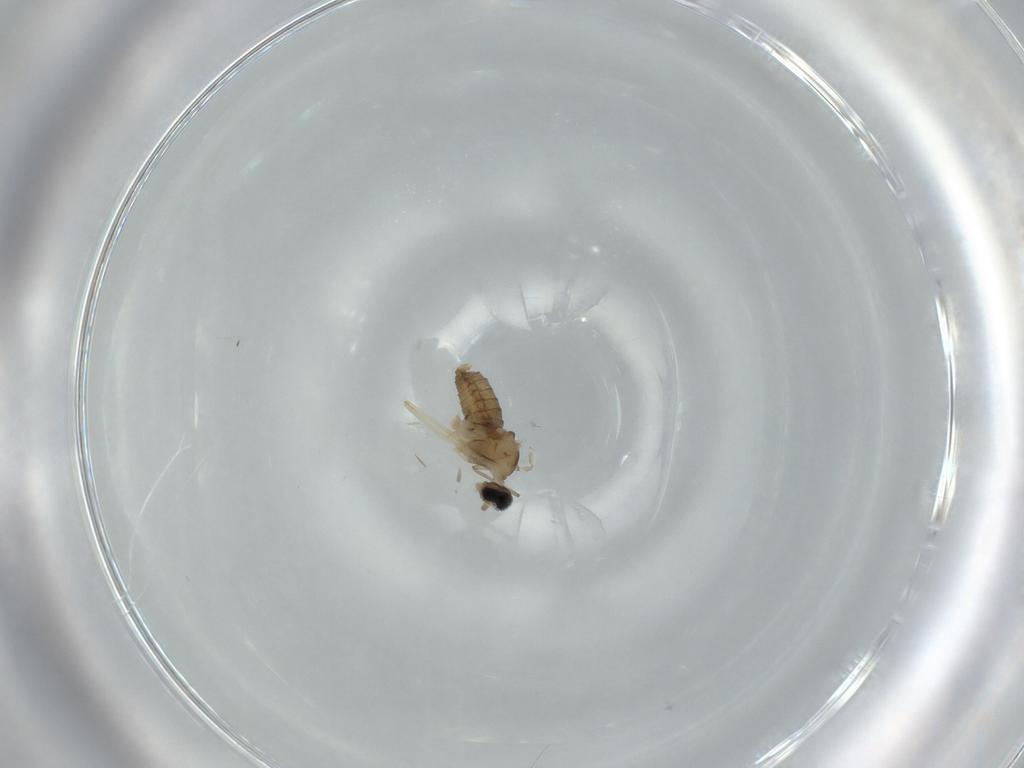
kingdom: Animalia
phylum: Arthropoda
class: Insecta
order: Diptera
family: Chironomidae
